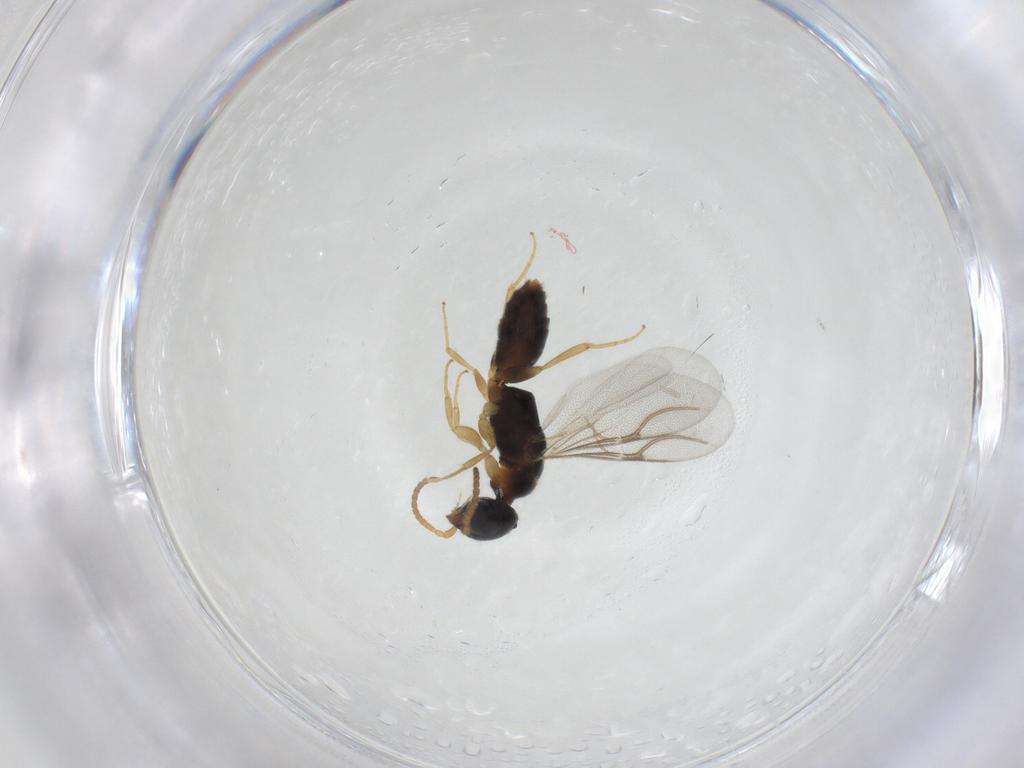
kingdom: Animalia
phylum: Arthropoda
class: Insecta
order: Hymenoptera
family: Bethylidae
